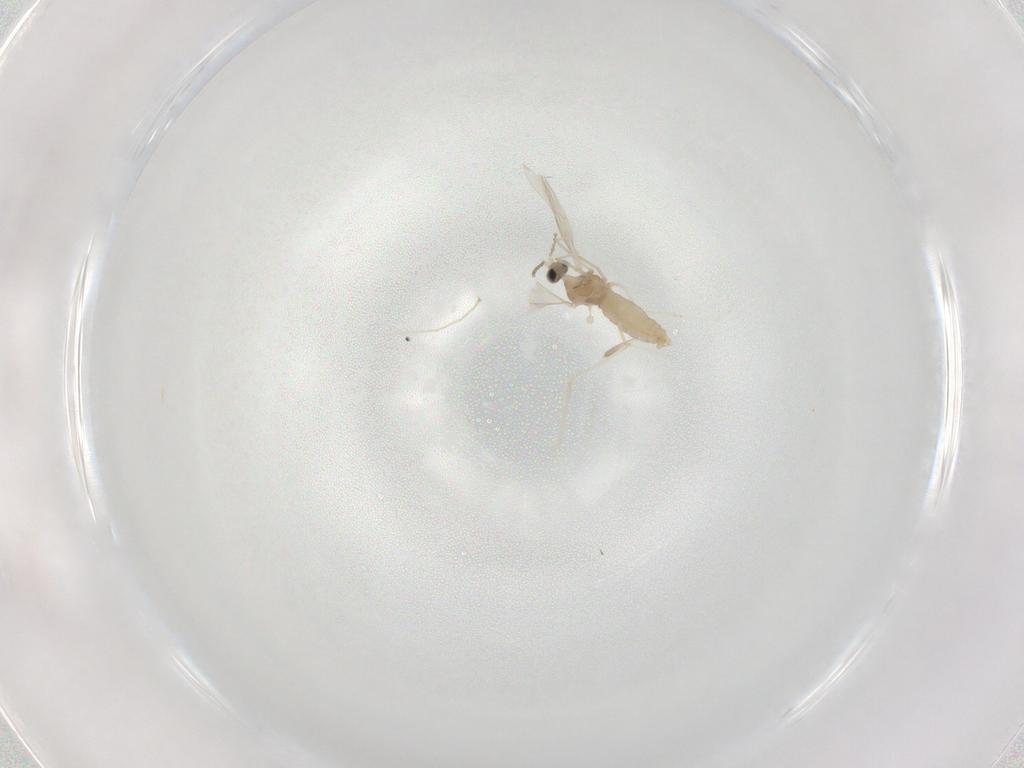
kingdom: Animalia
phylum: Arthropoda
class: Insecta
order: Diptera
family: Cecidomyiidae
